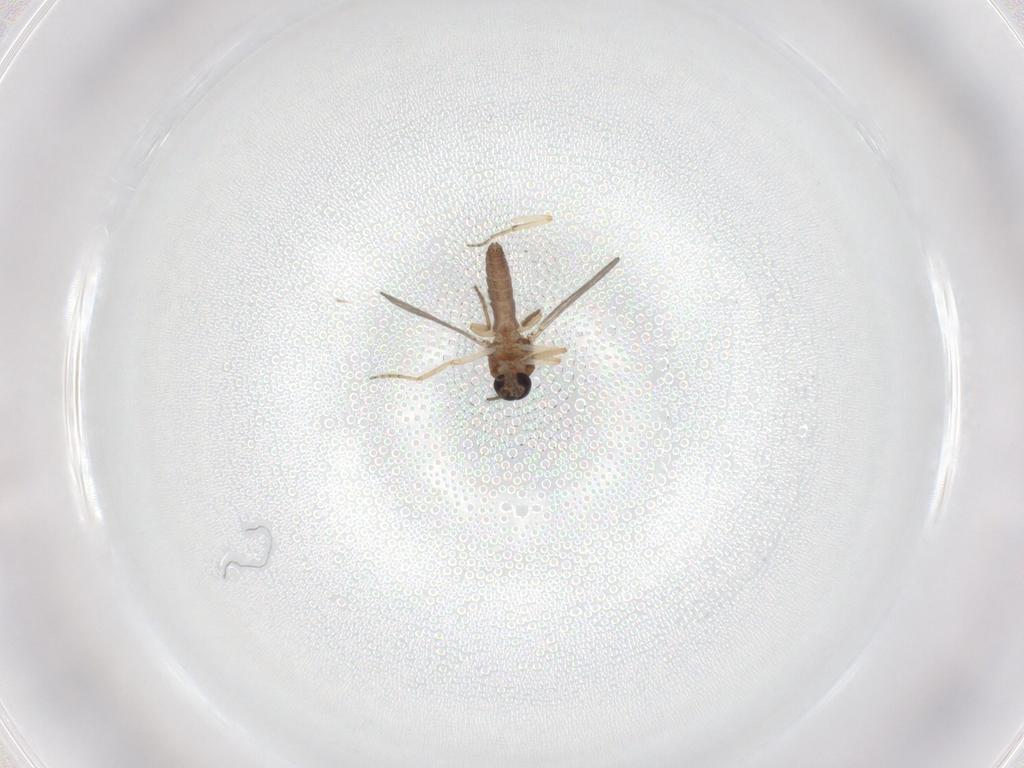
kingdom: Animalia
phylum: Arthropoda
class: Insecta
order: Diptera
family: Ceratopogonidae
